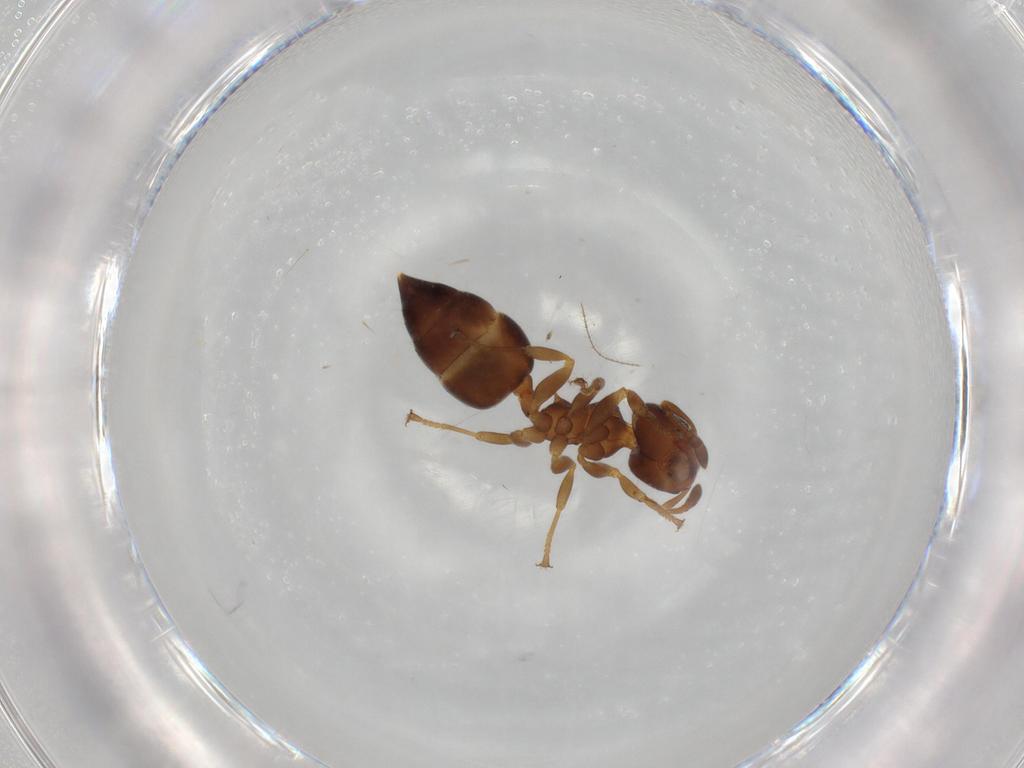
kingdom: Animalia
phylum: Arthropoda
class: Insecta
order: Hymenoptera
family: Formicidae
